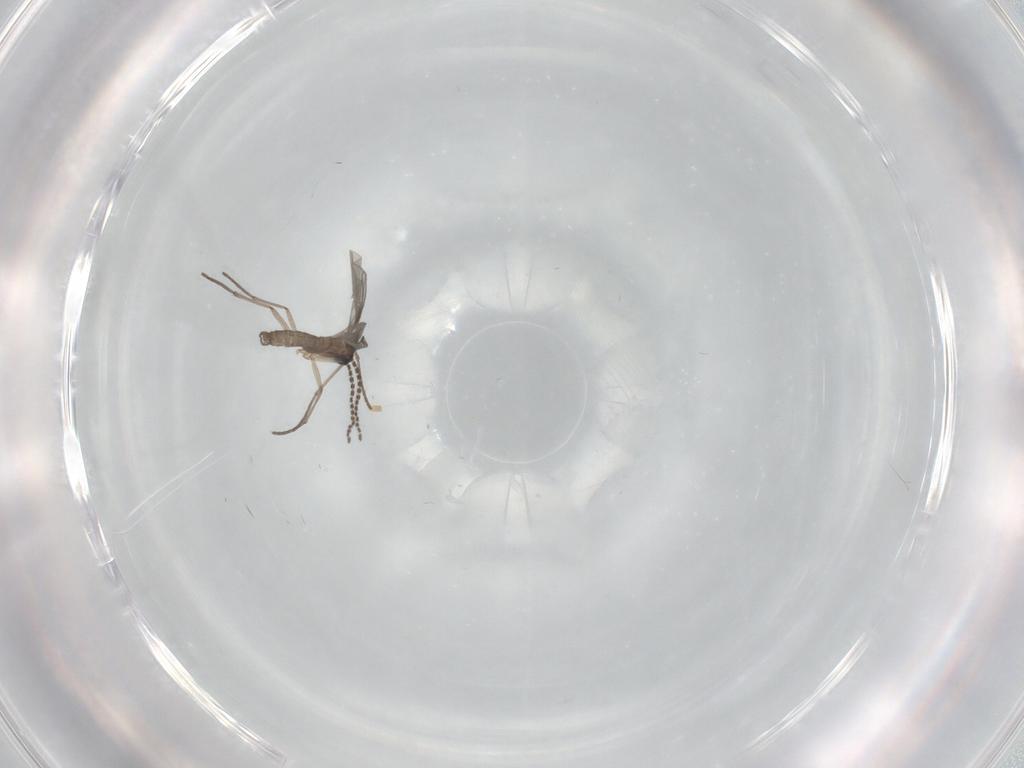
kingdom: Animalia
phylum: Arthropoda
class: Insecta
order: Diptera
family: Sciaridae
